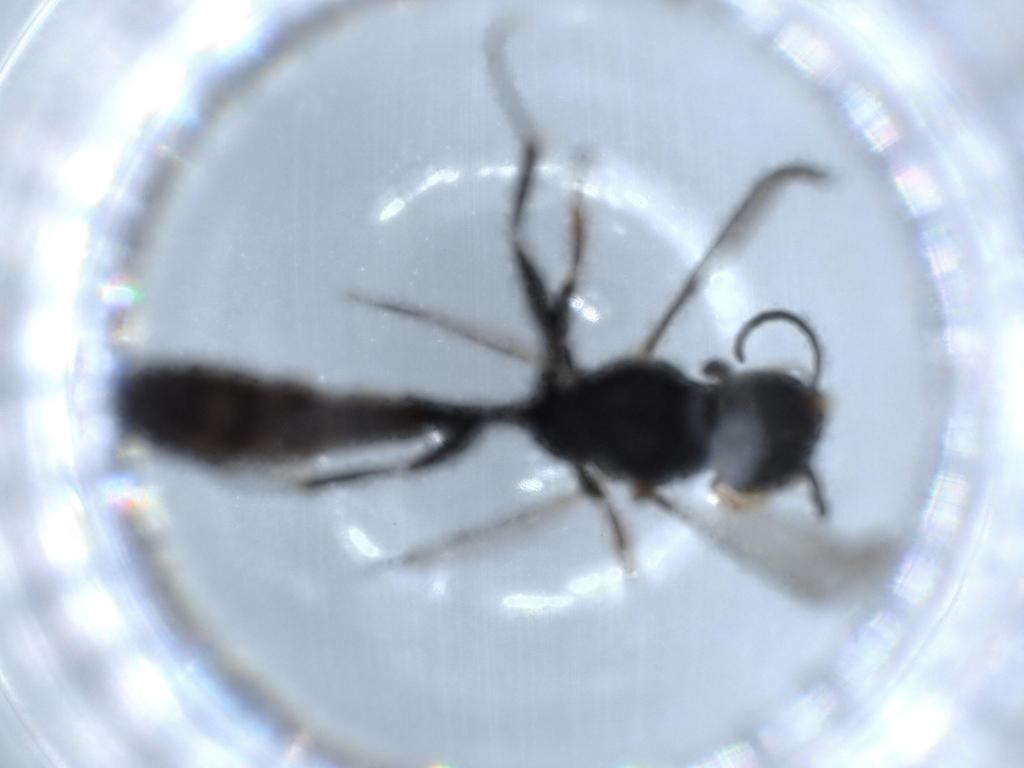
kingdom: Animalia
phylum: Arthropoda
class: Insecta
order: Hymenoptera
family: Crabronidae
